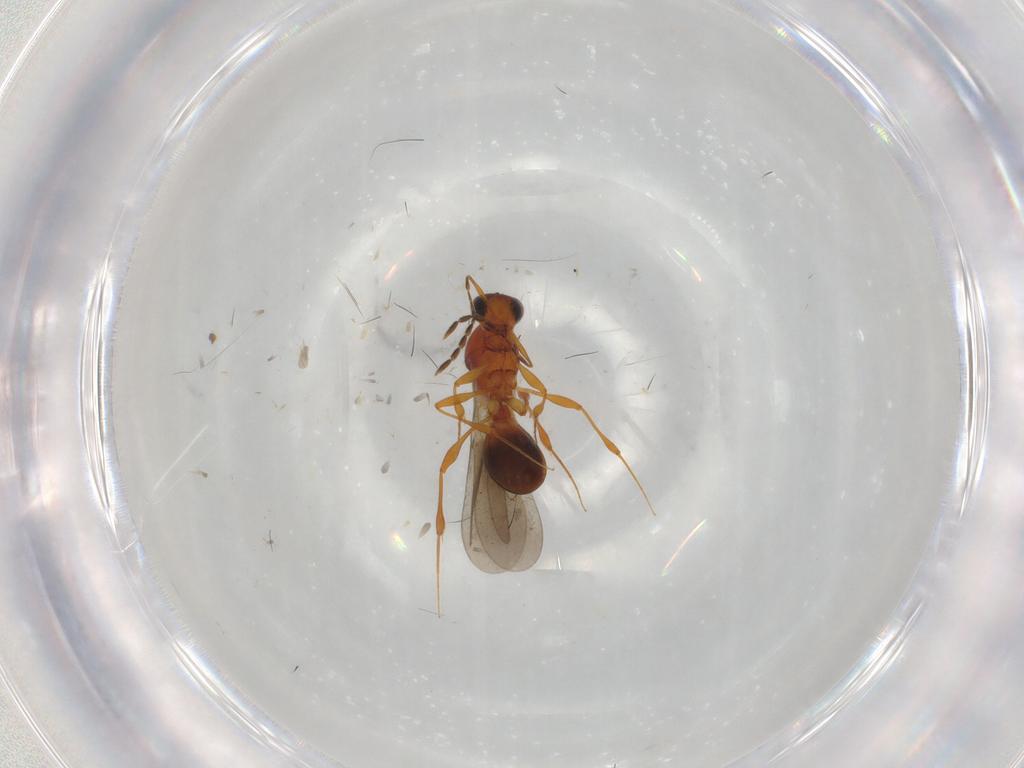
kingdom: Animalia
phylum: Arthropoda
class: Insecta
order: Hymenoptera
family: Platygastridae
